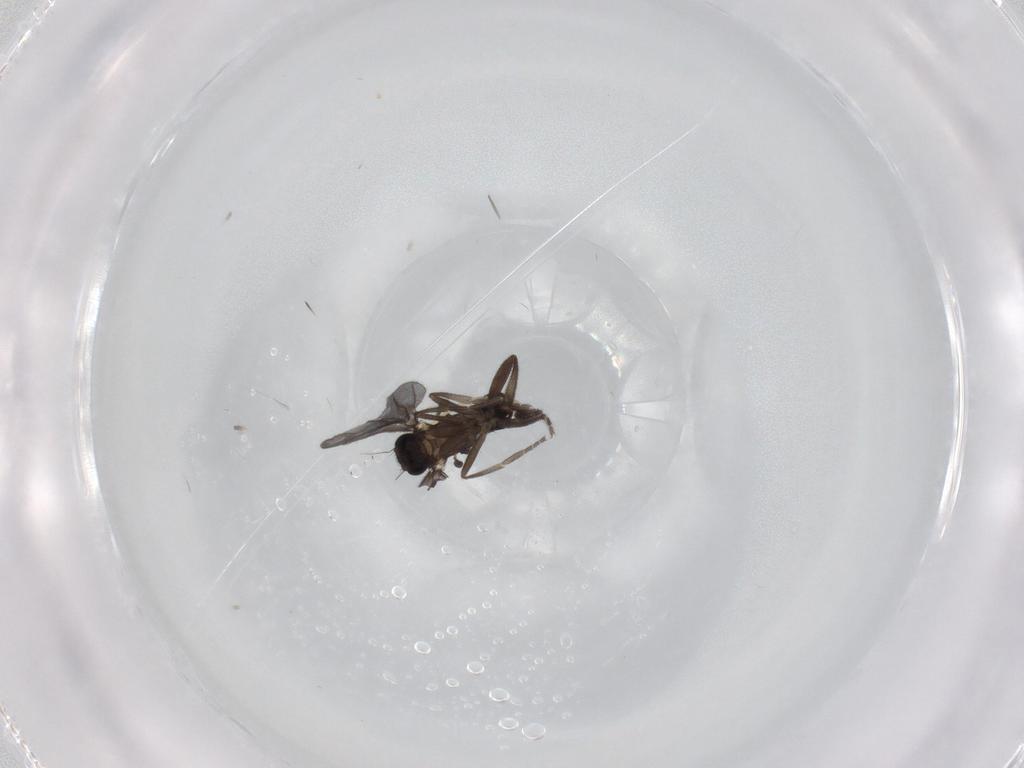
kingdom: Animalia
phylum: Arthropoda
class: Insecta
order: Diptera
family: Phoridae
